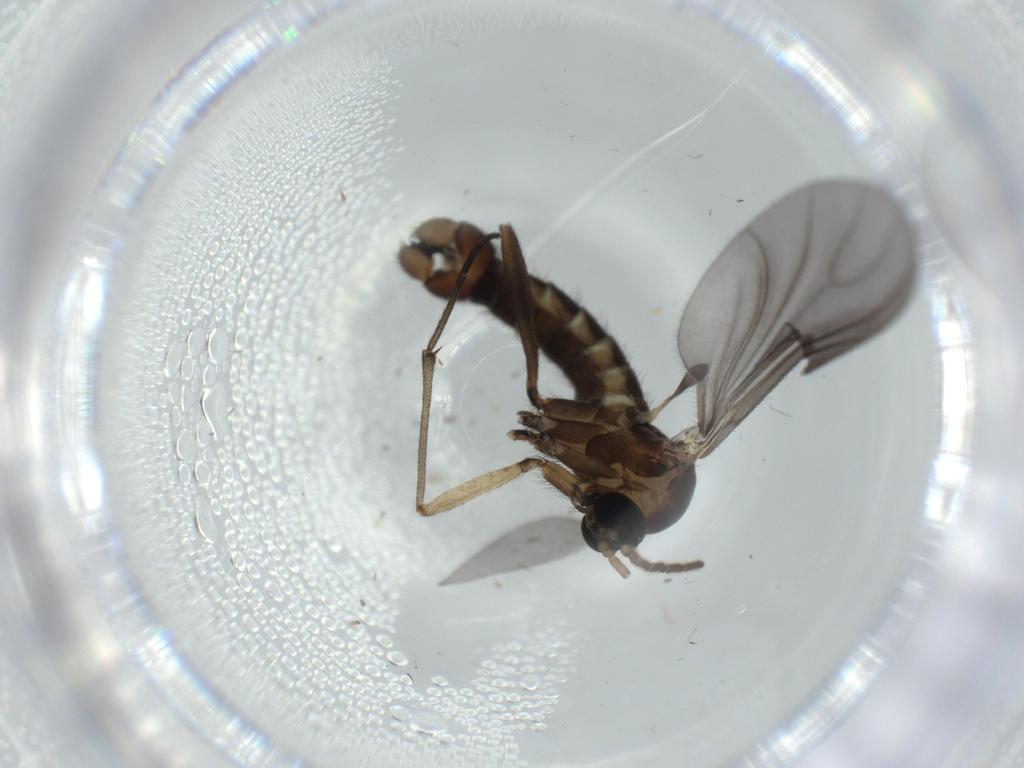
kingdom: Animalia
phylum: Arthropoda
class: Insecta
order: Diptera
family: Sciaridae
